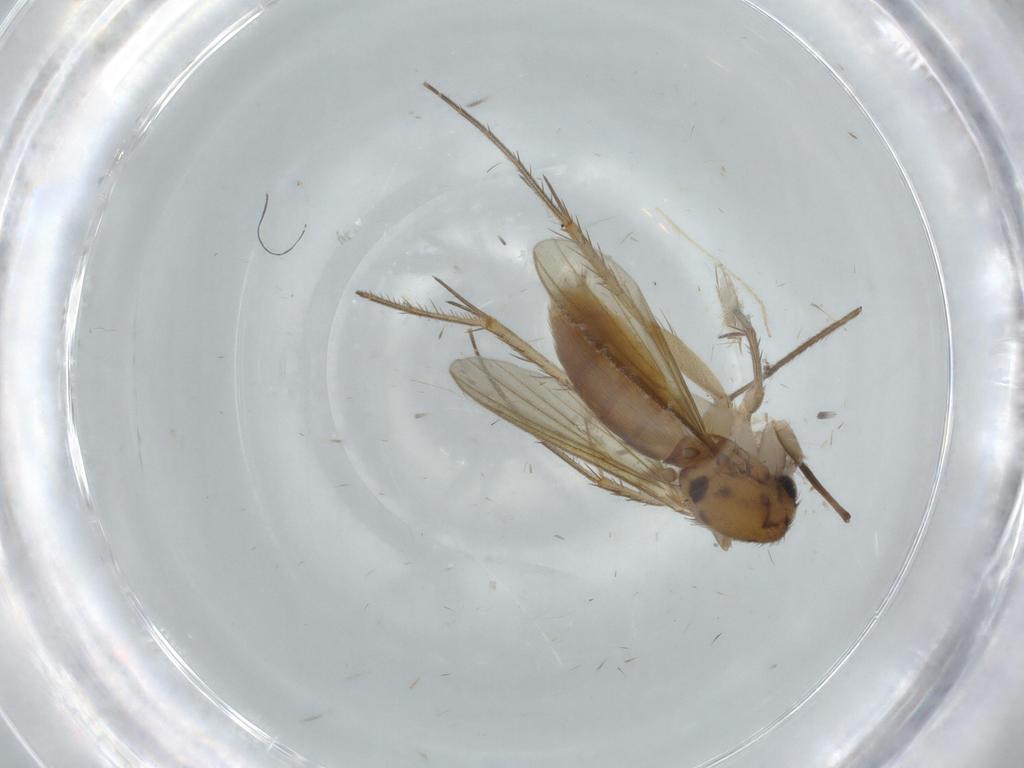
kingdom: Animalia
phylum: Arthropoda
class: Insecta
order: Diptera
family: Mycetophilidae
